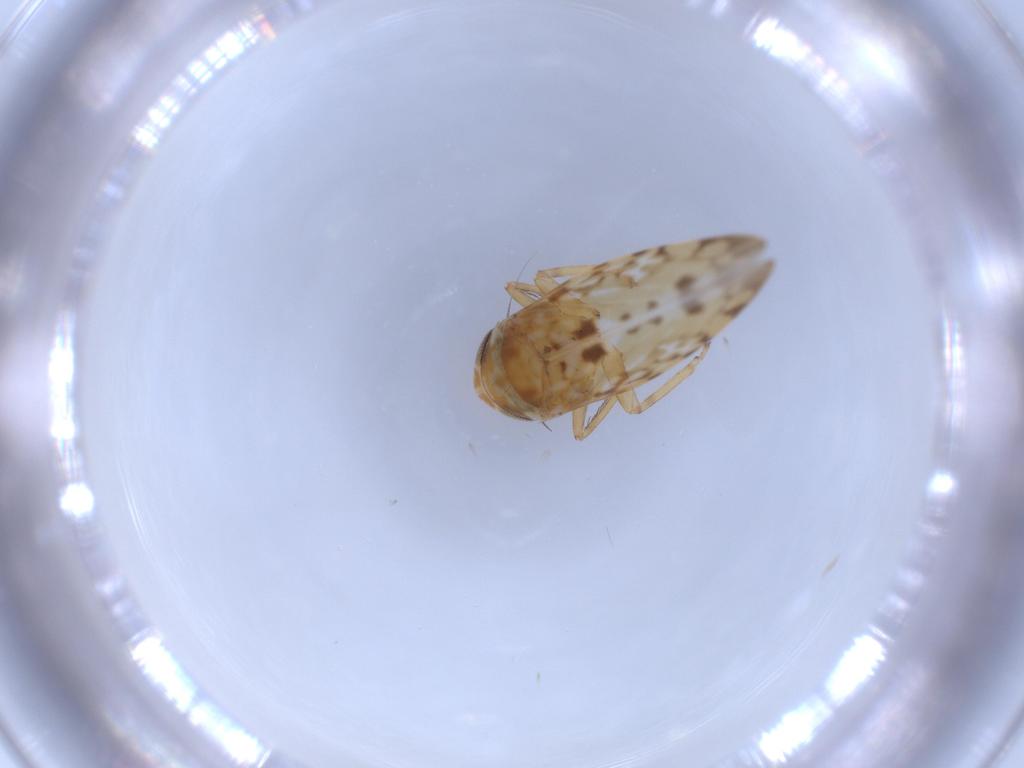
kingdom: Animalia
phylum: Arthropoda
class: Insecta
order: Hemiptera
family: Cicadellidae
